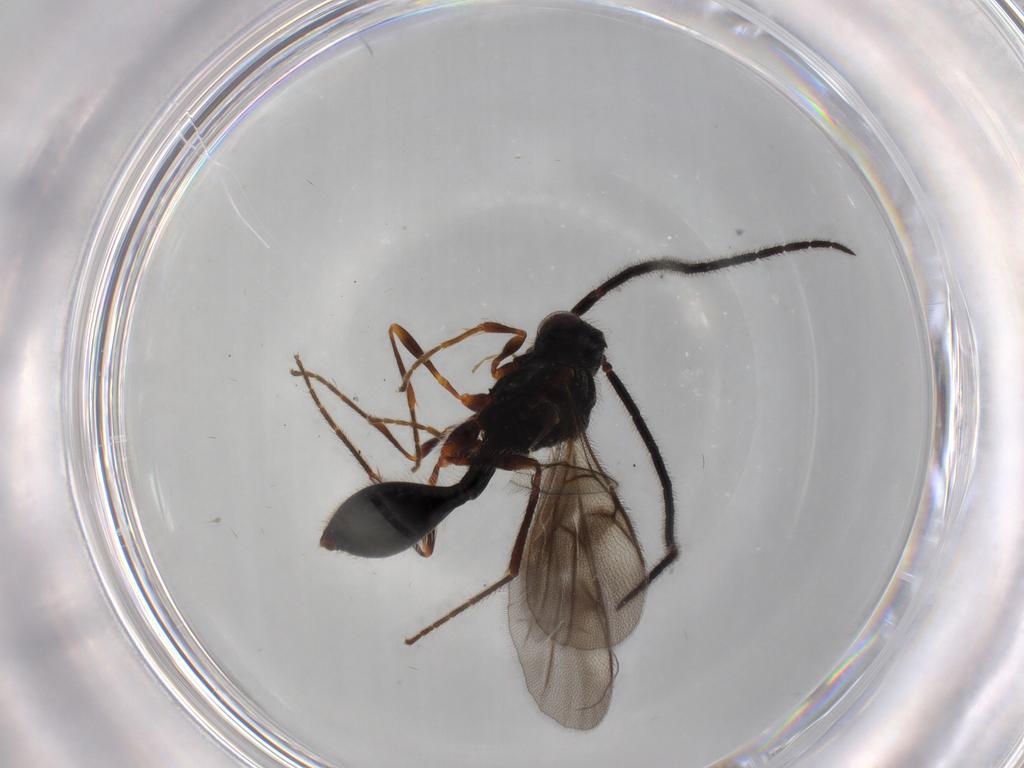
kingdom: Animalia
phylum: Arthropoda
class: Insecta
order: Hymenoptera
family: Diapriidae
